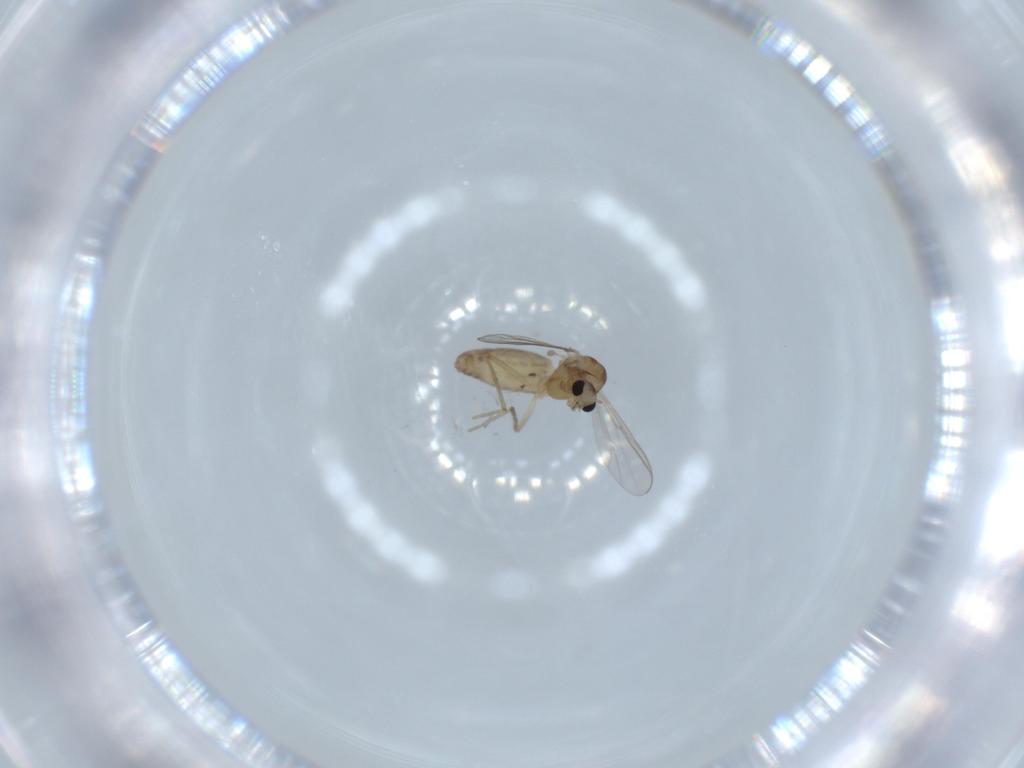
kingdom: Animalia
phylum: Arthropoda
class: Insecta
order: Diptera
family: Chironomidae
